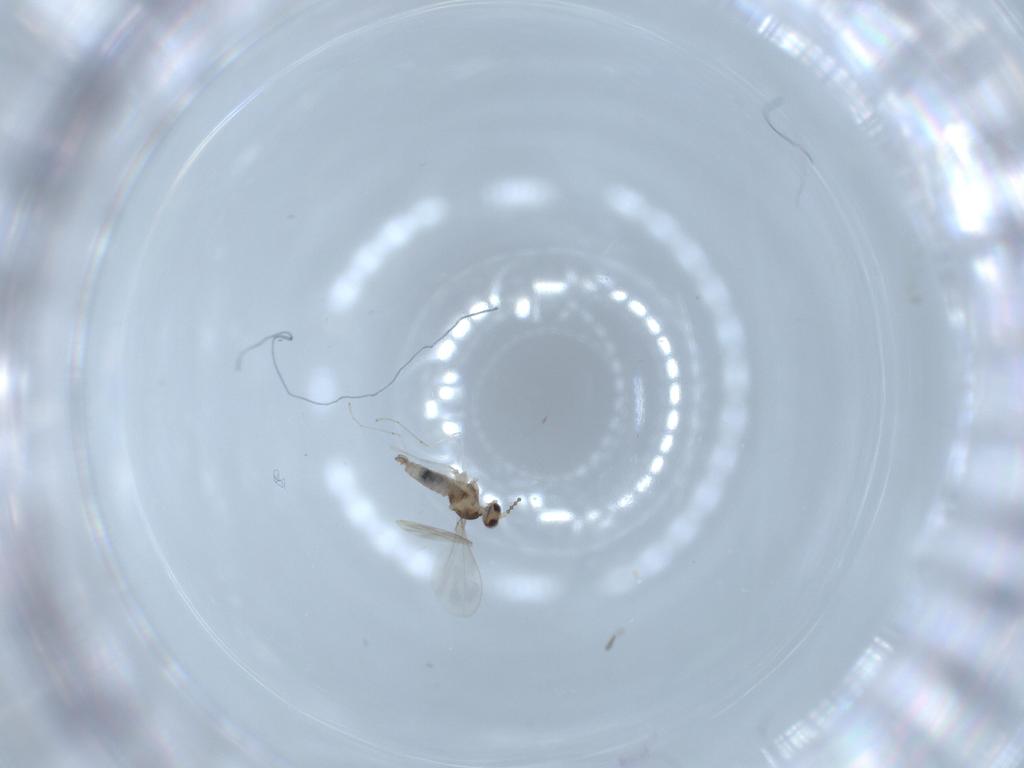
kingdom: Animalia
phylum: Arthropoda
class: Insecta
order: Diptera
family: Cecidomyiidae
